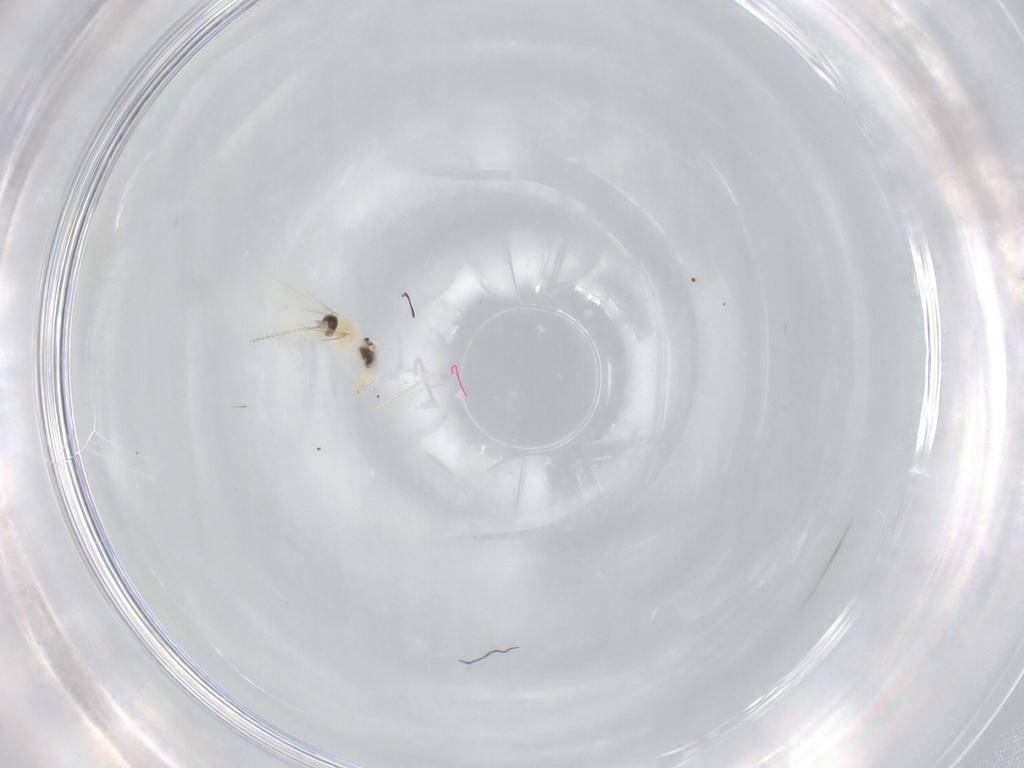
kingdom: Animalia
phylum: Arthropoda
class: Insecta
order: Diptera
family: Cecidomyiidae
